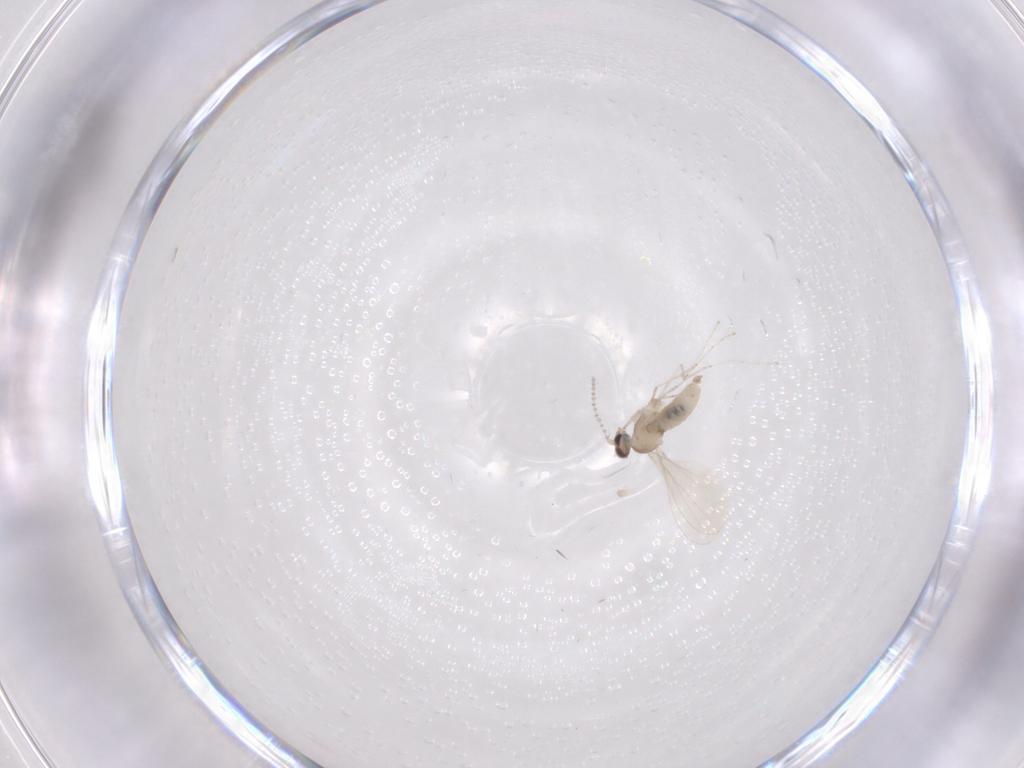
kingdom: Animalia
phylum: Arthropoda
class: Insecta
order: Diptera
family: Cecidomyiidae
